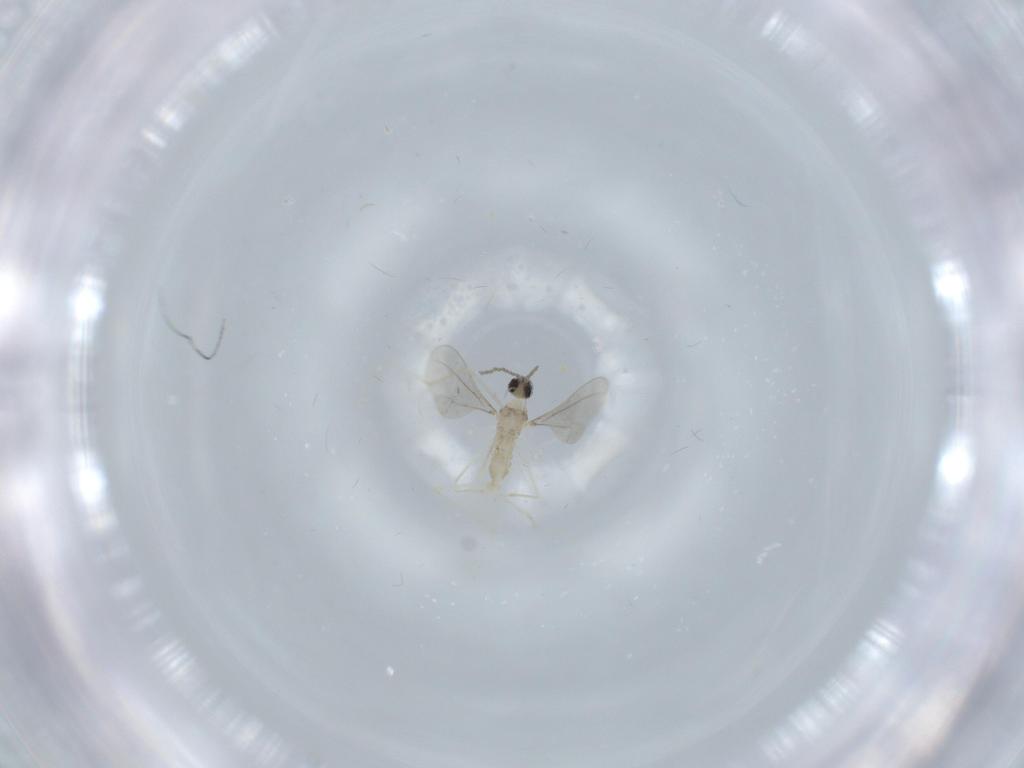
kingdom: Animalia
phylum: Arthropoda
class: Insecta
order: Diptera
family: Cecidomyiidae
